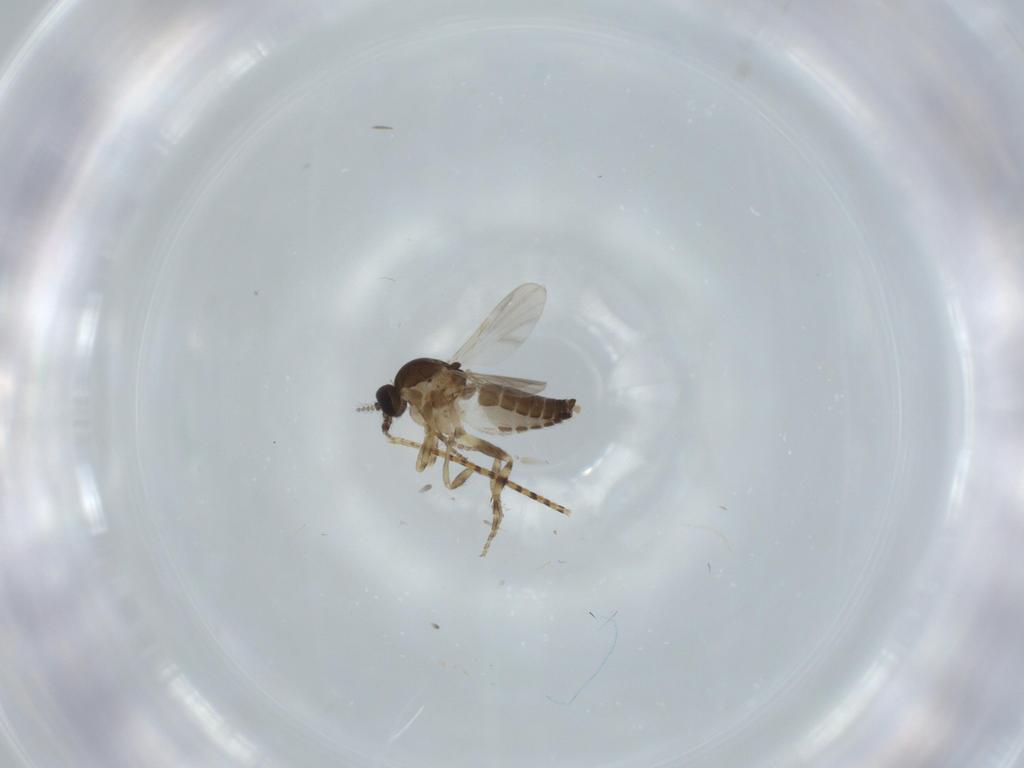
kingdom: Animalia
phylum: Arthropoda
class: Insecta
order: Diptera
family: Ceratopogonidae
